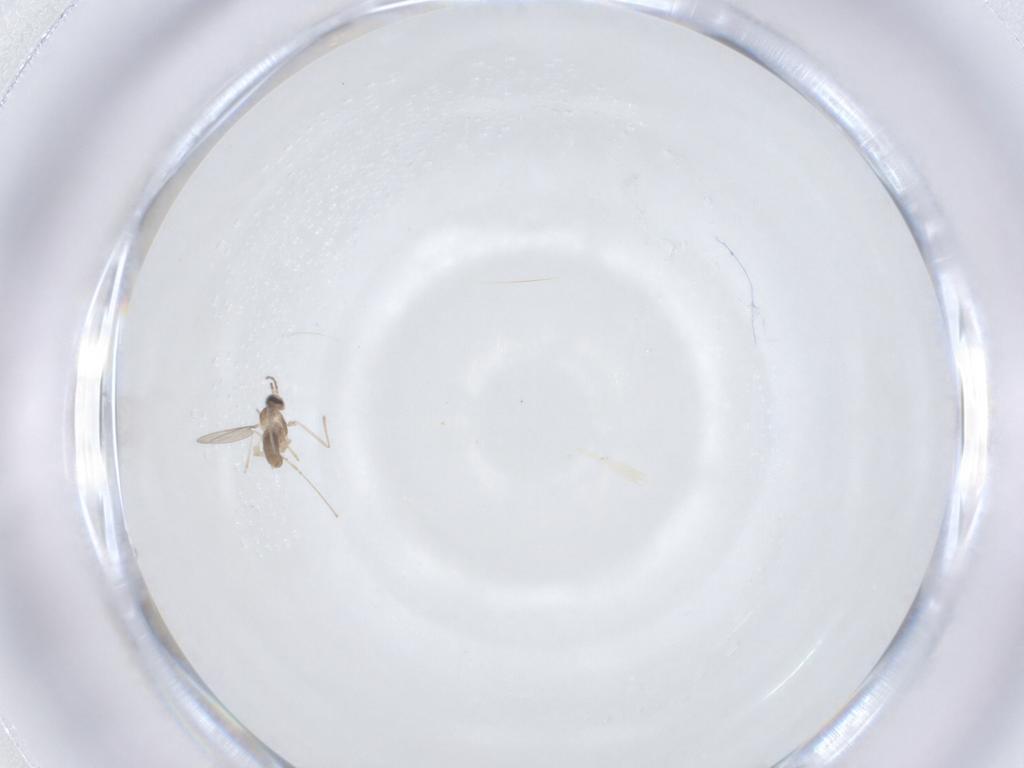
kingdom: Animalia
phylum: Arthropoda
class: Insecta
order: Diptera
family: Cecidomyiidae
